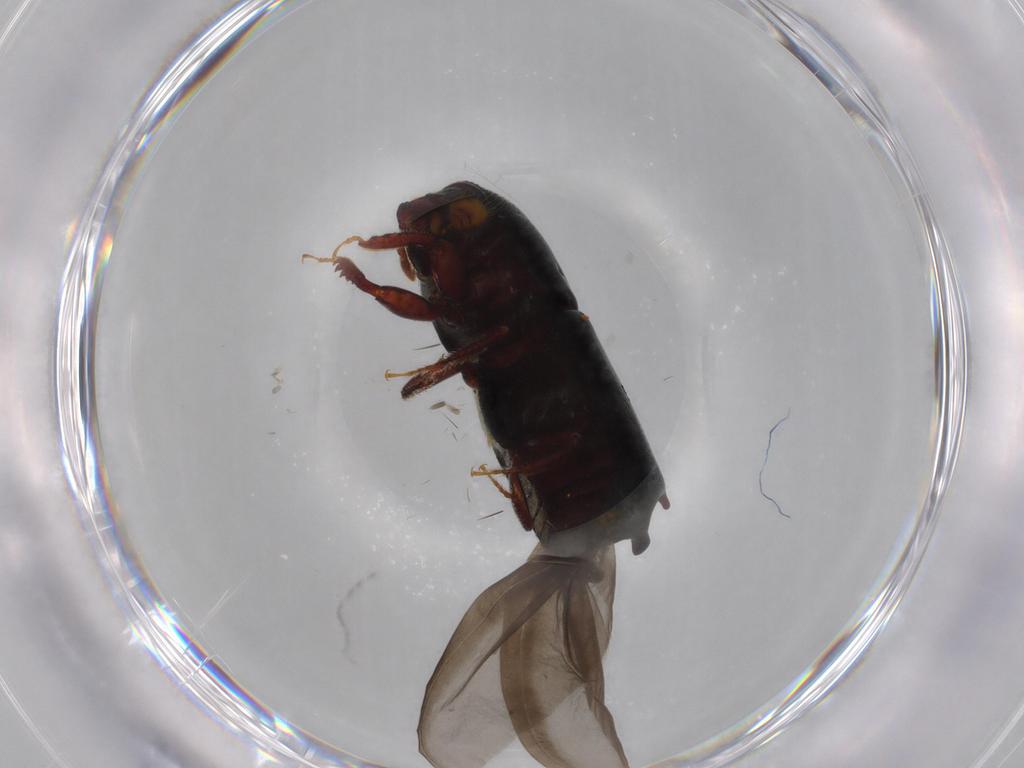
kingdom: Animalia
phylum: Arthropoda
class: Insecta
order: Coleoptera
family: Curculionidae
